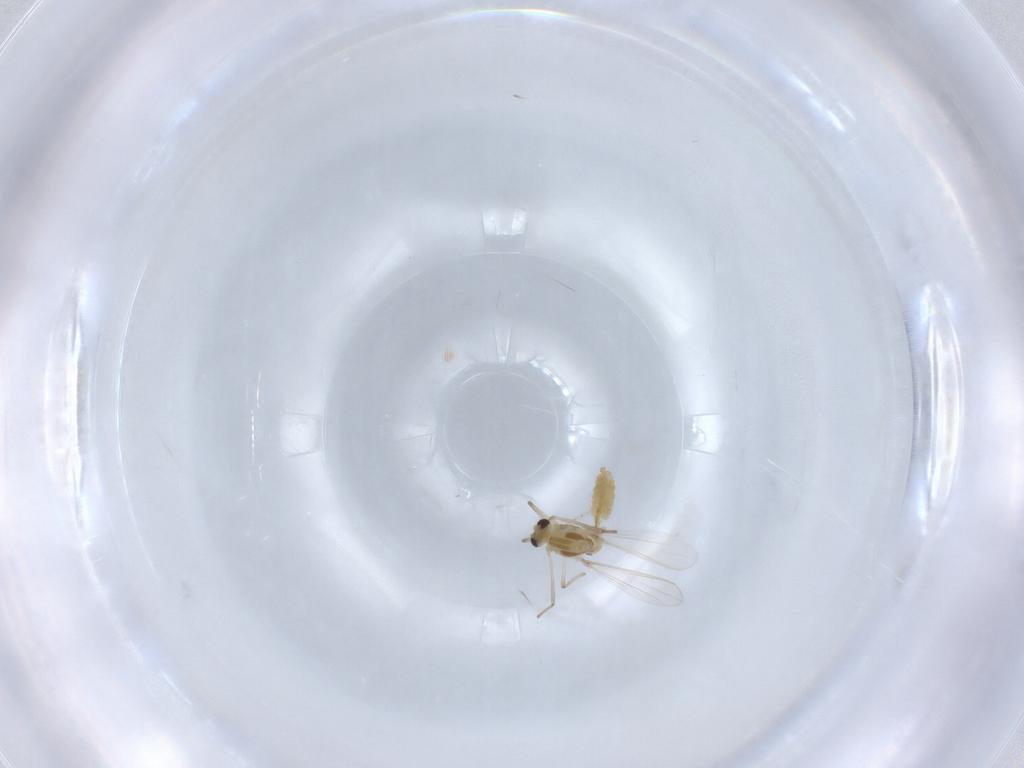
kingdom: Animalia
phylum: Arthropoda
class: Insecta
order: Diptera
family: Chironomidae
